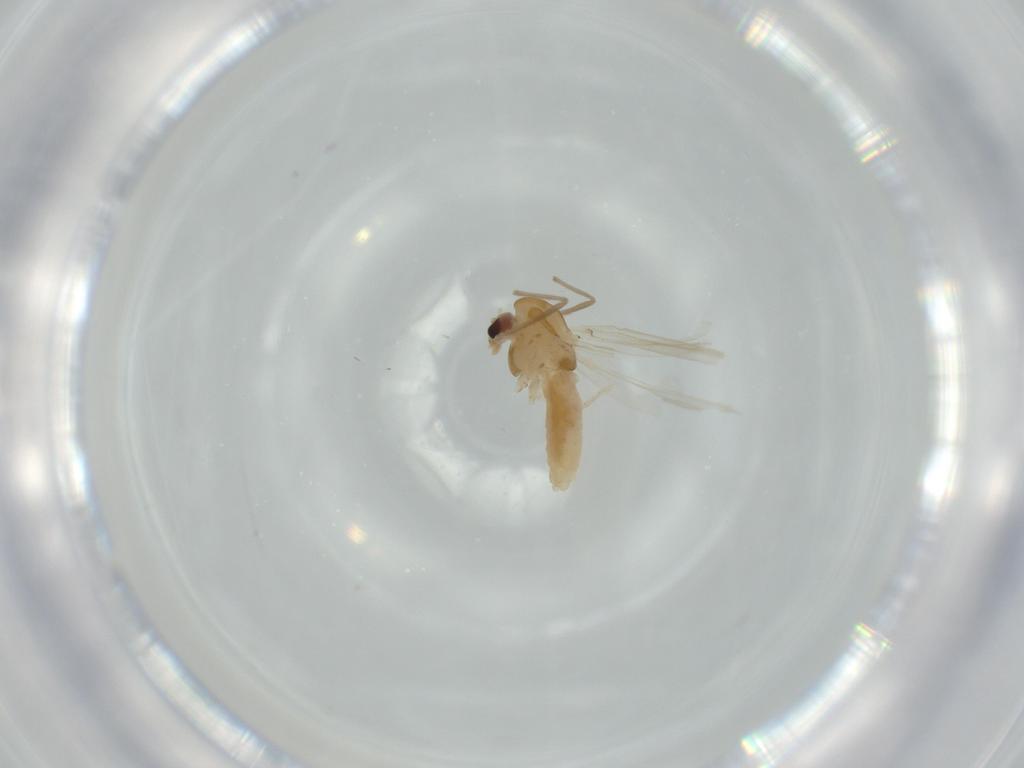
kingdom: Animalia
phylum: Arthropoda
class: Insecta
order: Diptera
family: Chironomidae
